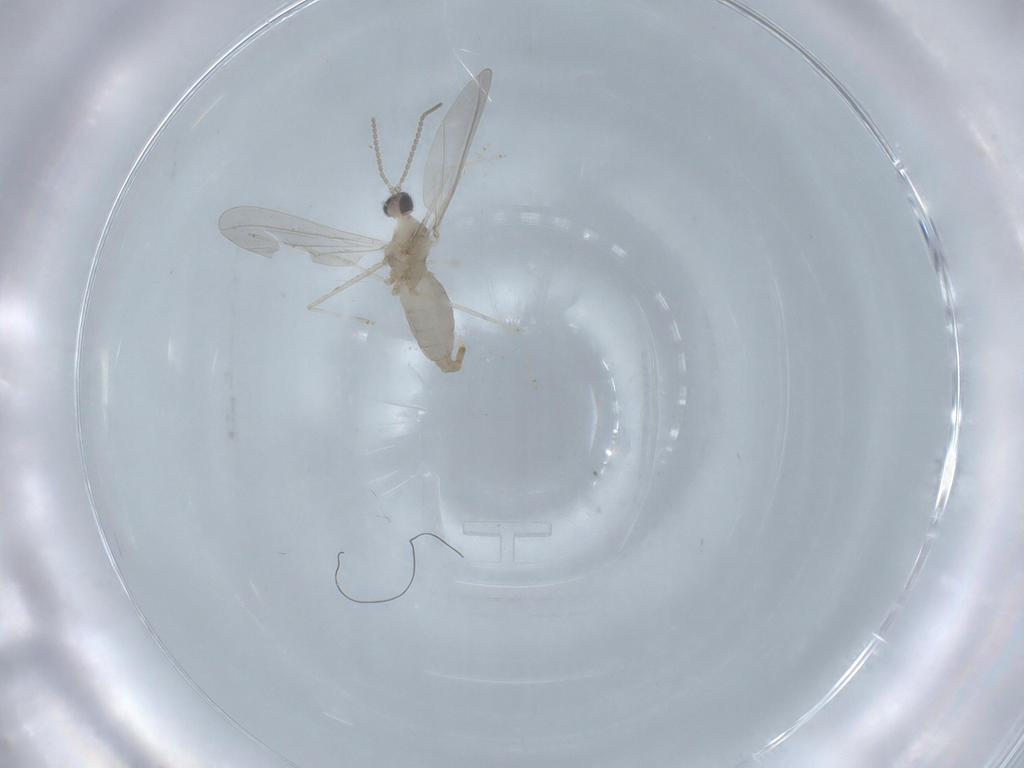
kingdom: Animalia
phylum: Arthropoda
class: Insecta
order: Diptera
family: Cecidomyiidae
